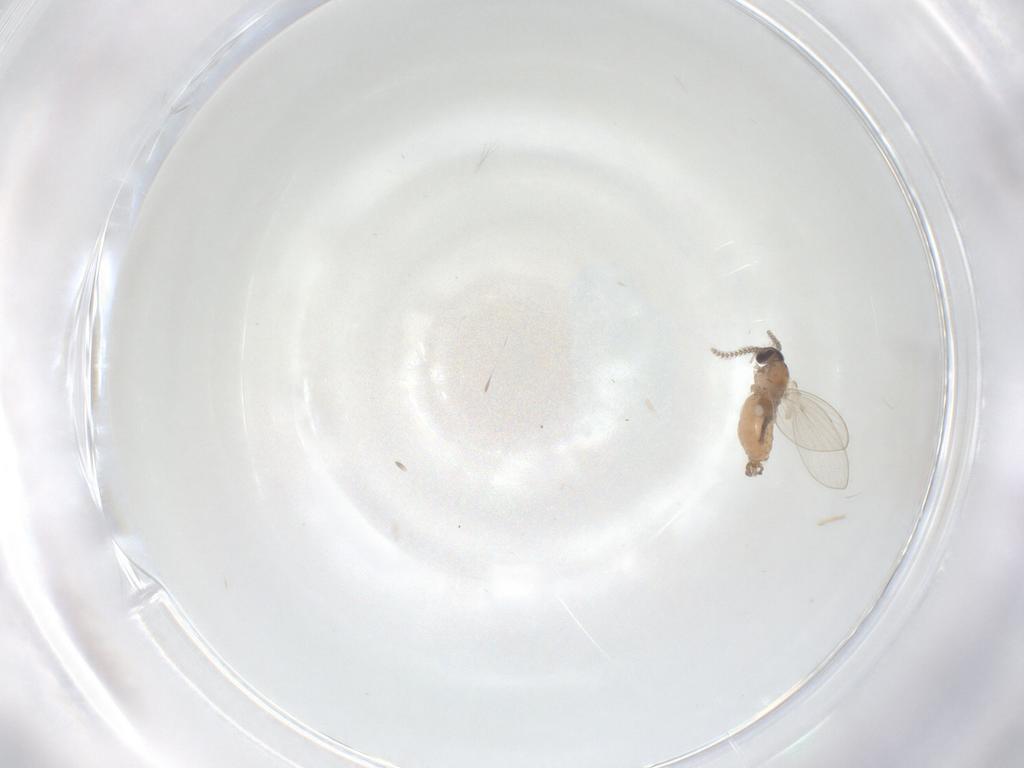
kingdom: Animalia
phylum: Arthropoda
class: Insecta
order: Diptera
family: Psychodidae
